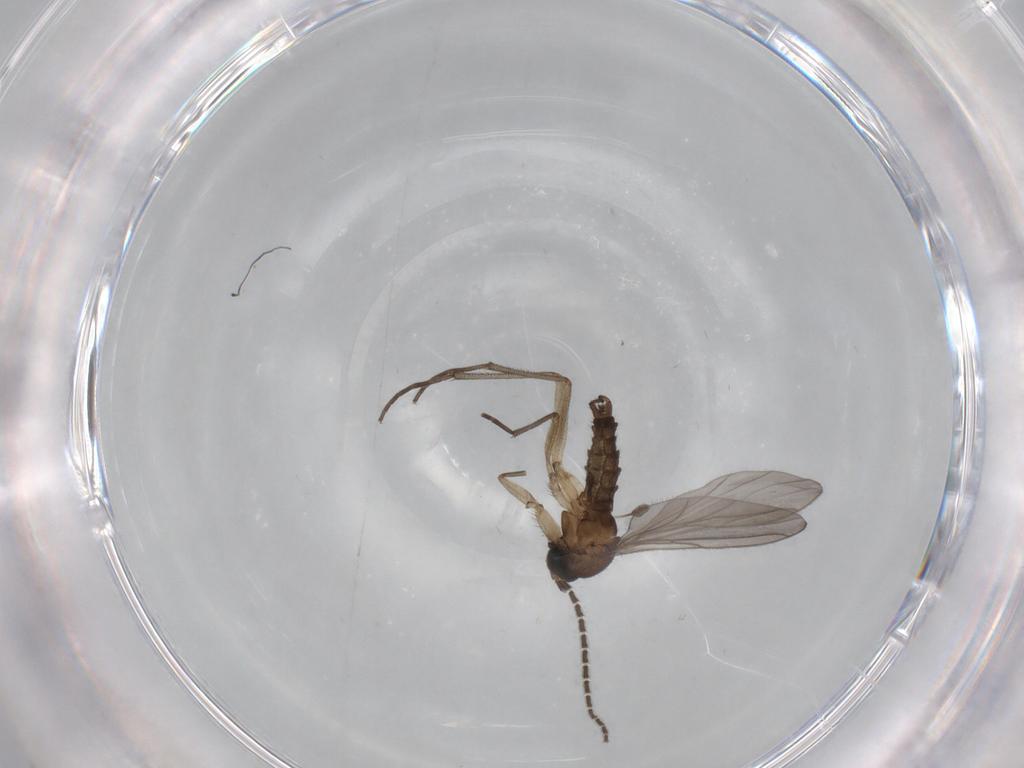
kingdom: Animalia
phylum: Arthropoda
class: Insecta
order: Diptera
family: Sciaridae
